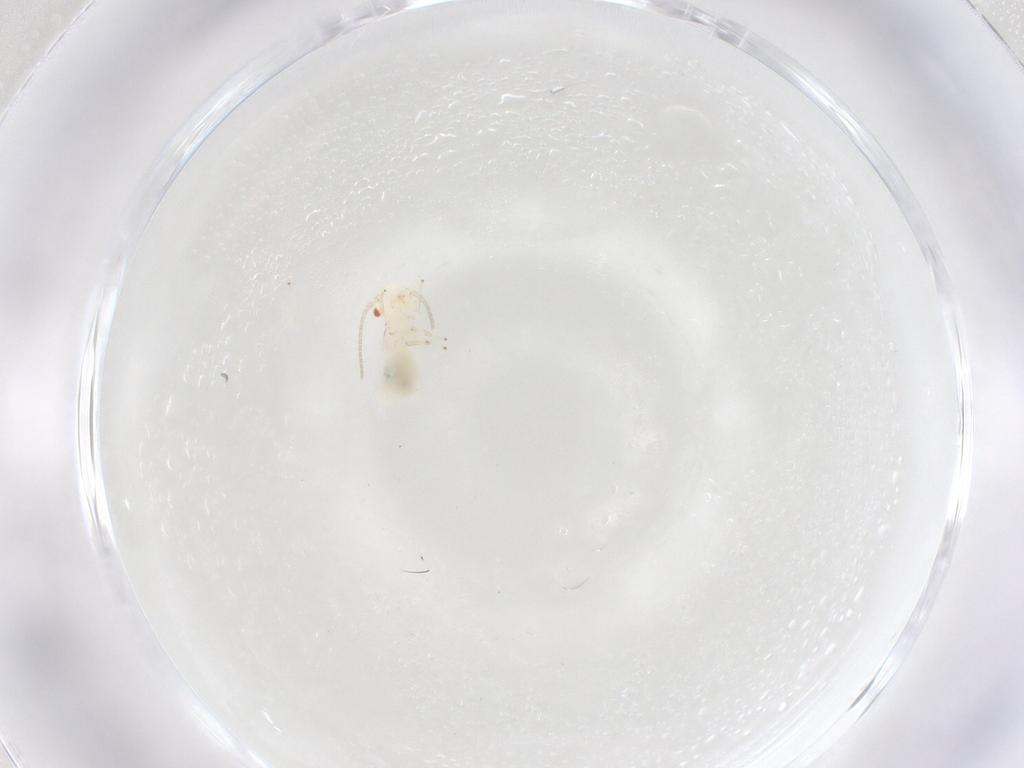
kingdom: Animalia
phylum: Arthropoda
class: Insecta
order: Psocodea
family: Caeciliusidae
